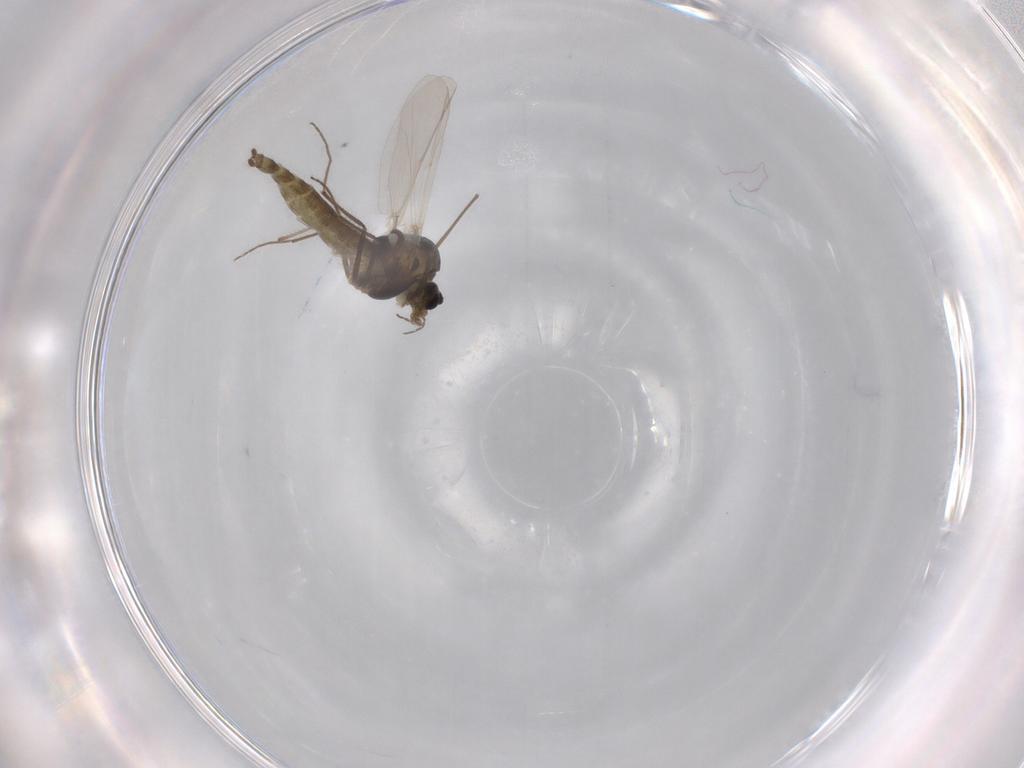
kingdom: Animalia
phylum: Arthropoda
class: Insecta
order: Diptera
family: Chironomidae
